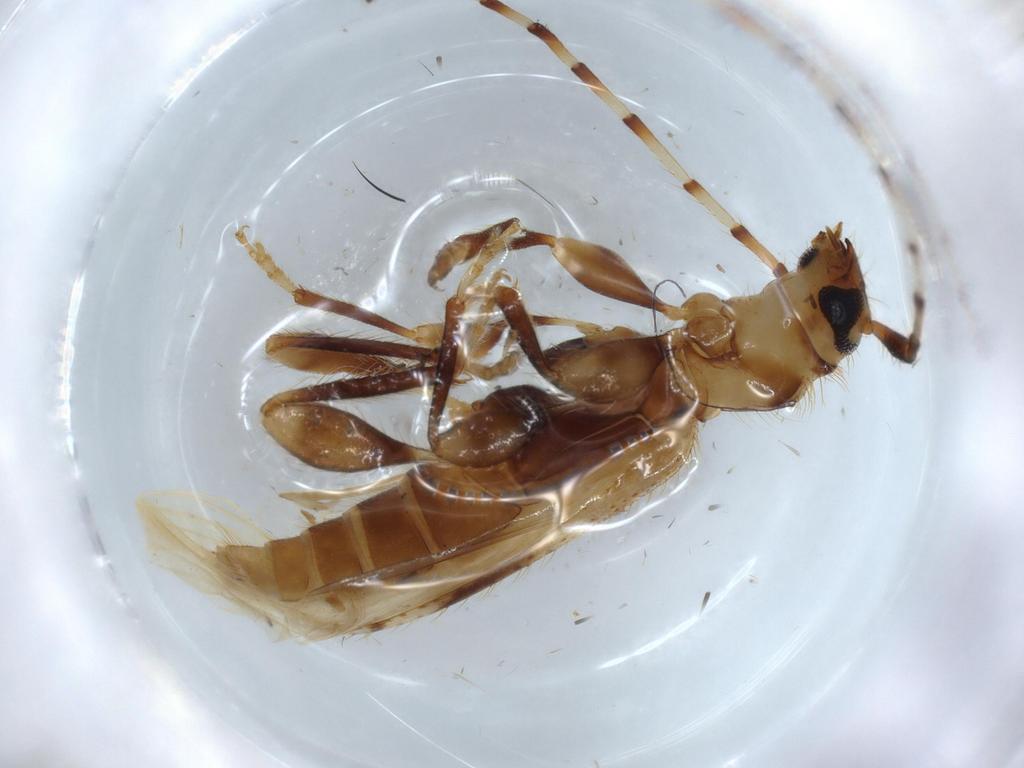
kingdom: Animalia
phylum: Arthropoda
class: Insecta
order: Coleoptera
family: Cerambycidae
